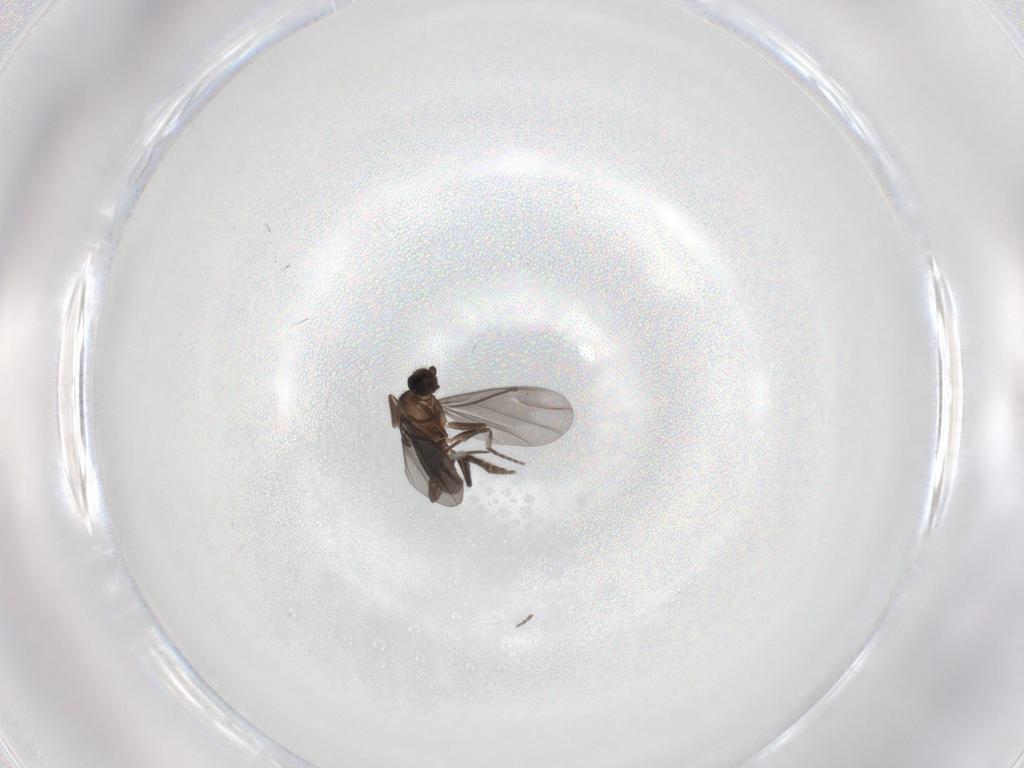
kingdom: Animalia
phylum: Arthropoda
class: Insecta
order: Diptera
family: Phoridae
